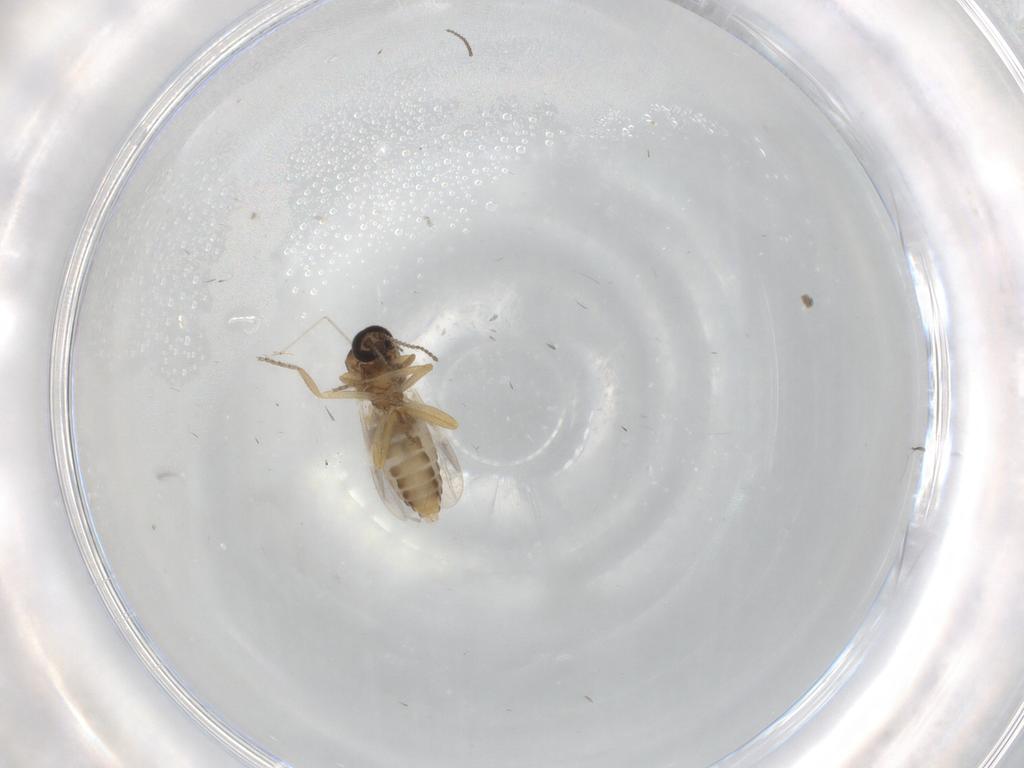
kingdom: Animalia
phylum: Arthropoda
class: Insecta
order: Diptera
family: Ceratopogonidae
